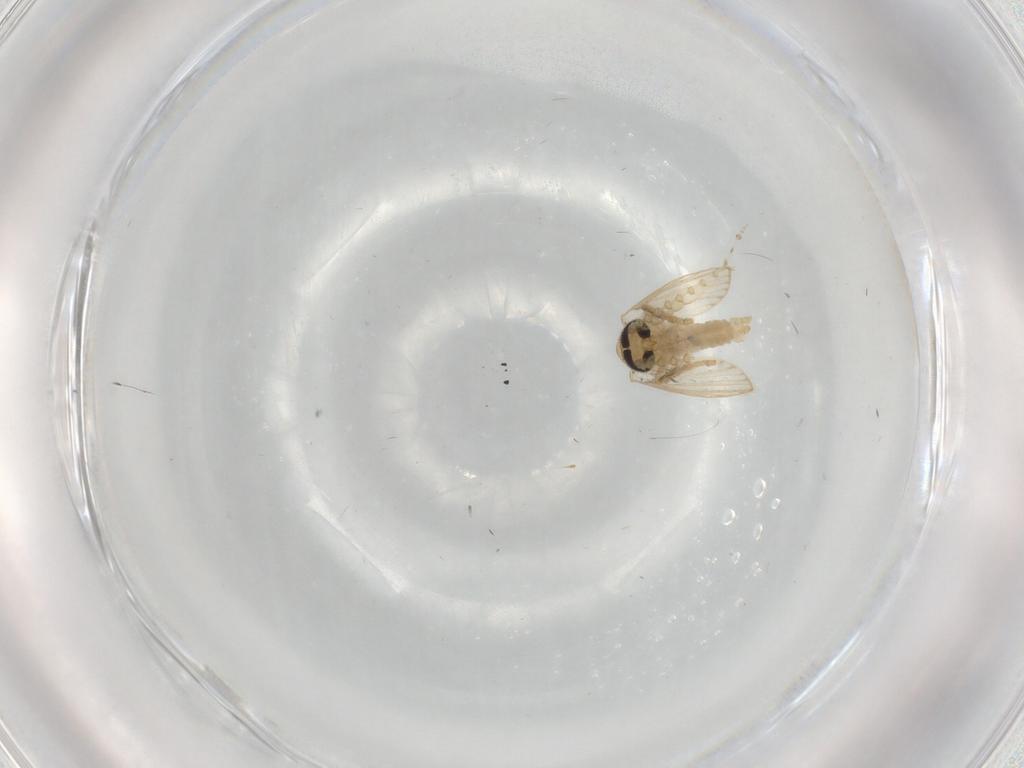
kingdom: Animalia
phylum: Arthropoda
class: Insecta
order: Diptera
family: Psychodidae
